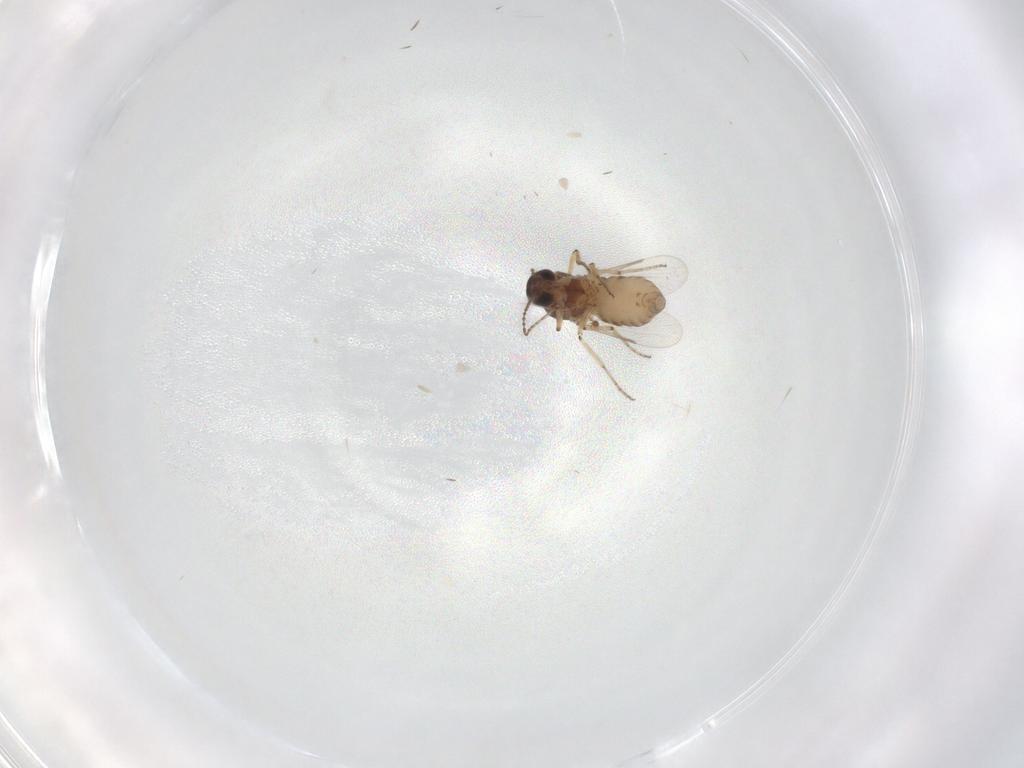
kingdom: Animalia
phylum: Arthropoda
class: Insecta
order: Diptera
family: Ceratopogonidae
